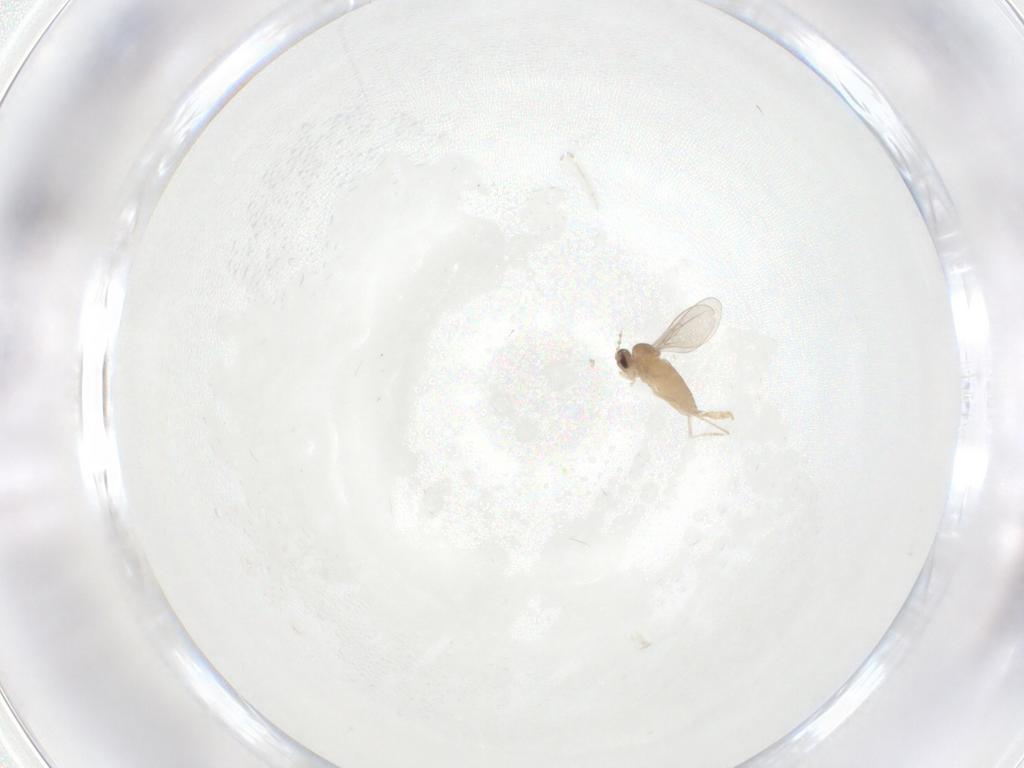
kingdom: Animalia
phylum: Arthropoda
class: Insecta
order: Diptera
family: Cecidomyiidae
